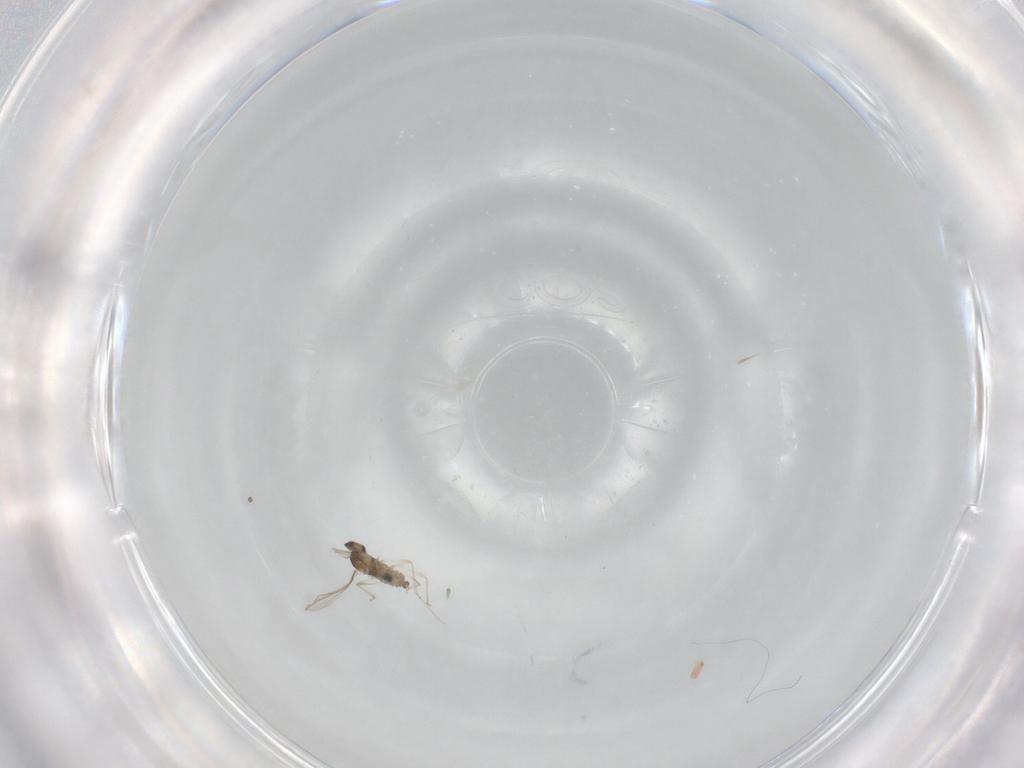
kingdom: Animalia
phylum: Arthropoda
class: Insecta
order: Diptera
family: Cecidomyiidae
